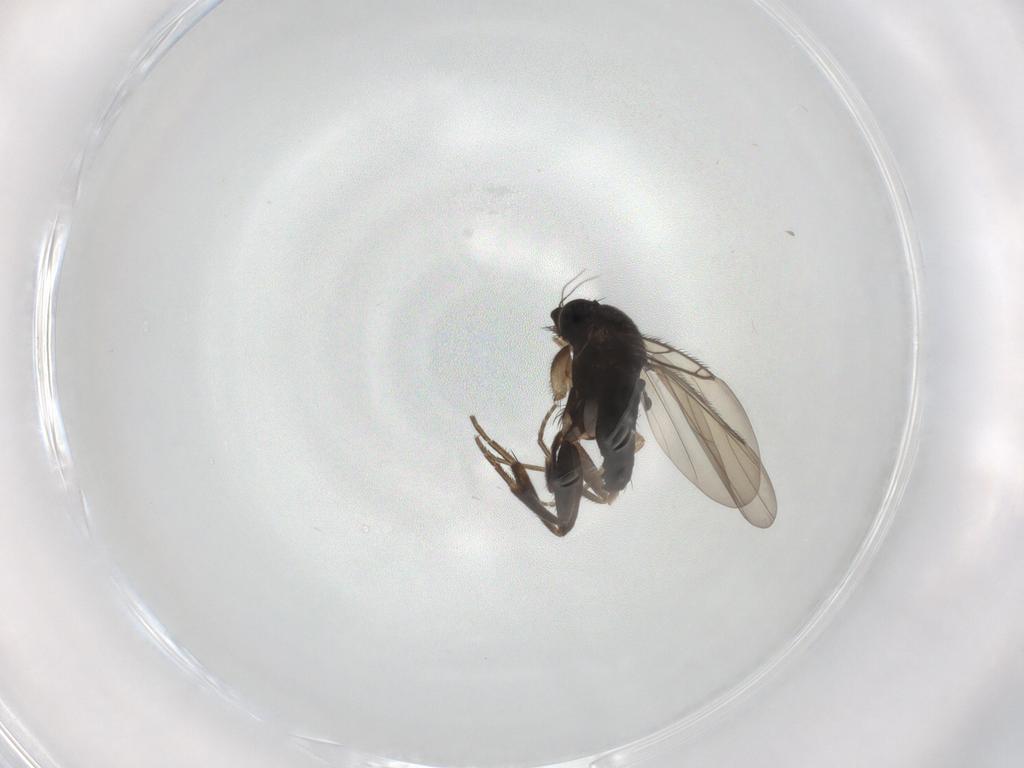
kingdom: Animalia
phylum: Arthropoda
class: Insecta
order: Diptera
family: Phoridae
